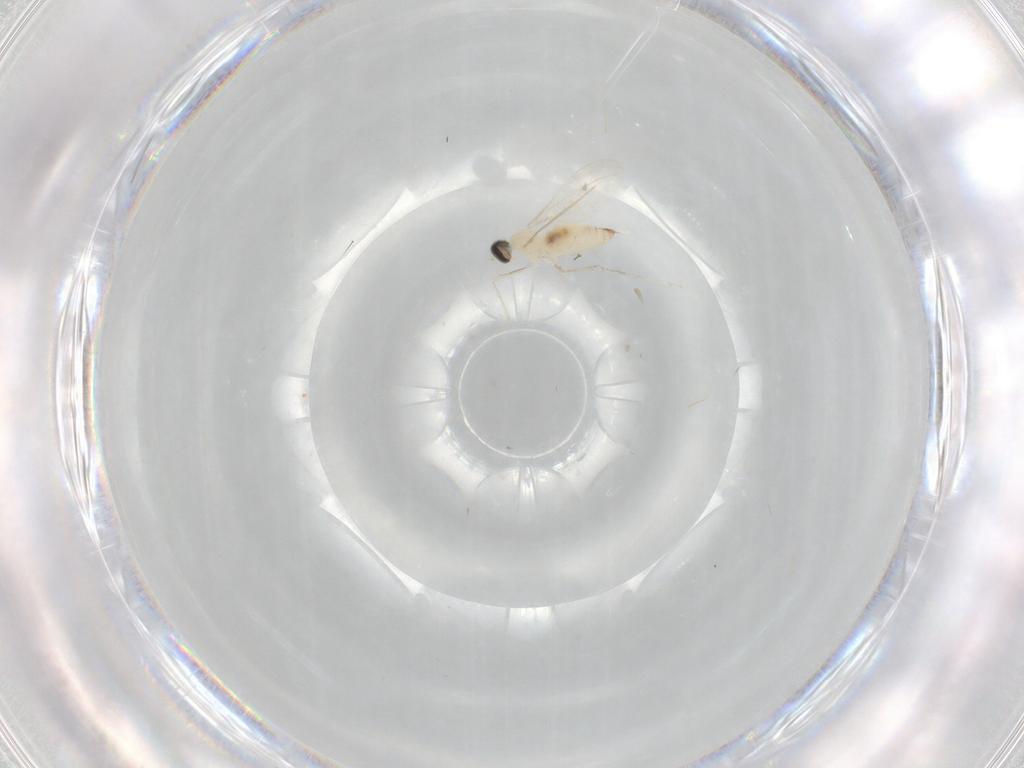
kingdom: Animalia
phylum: Arthropoda
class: Insecta
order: Diptera
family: Cecidomyiidae
